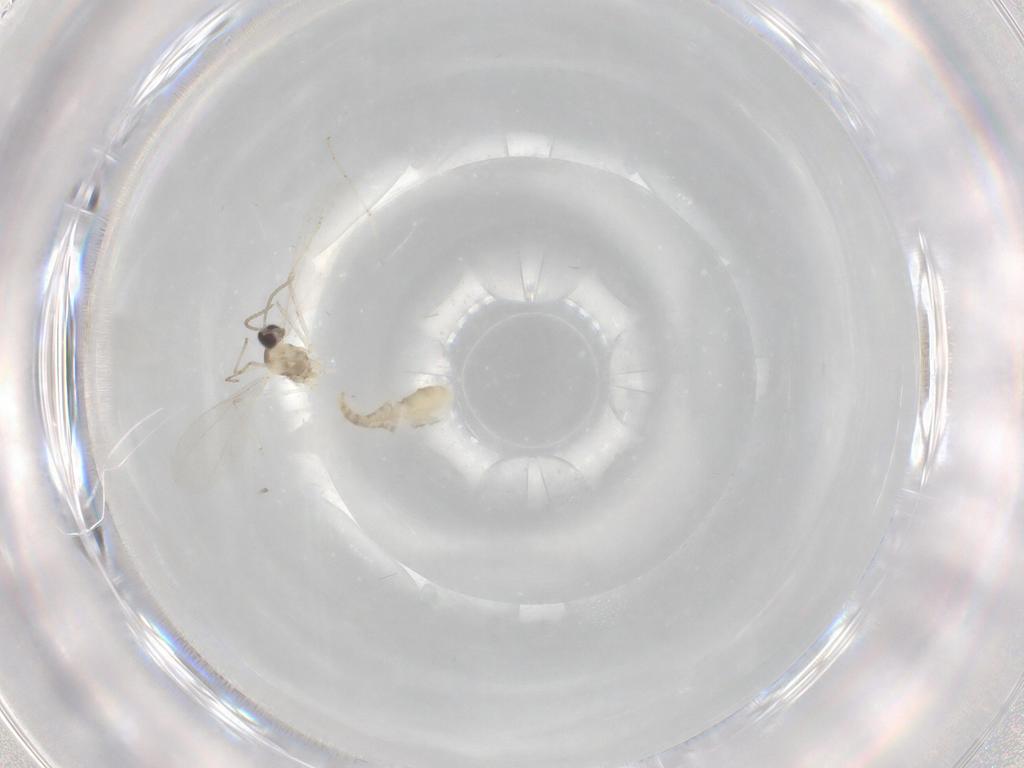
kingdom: Animalia
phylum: Arthropoda
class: Insecta
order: Diptera
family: Cecidomyiidae
